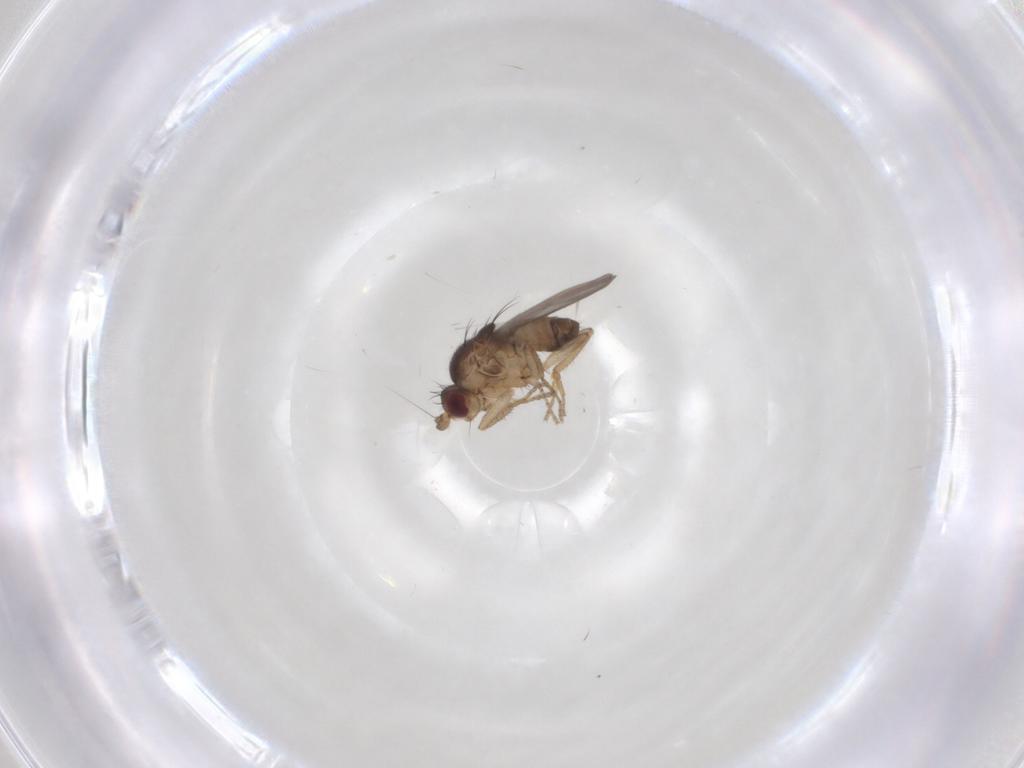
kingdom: Animalia
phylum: Arthropoda
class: Insecta
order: Diptera
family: Sphaeroceridae
